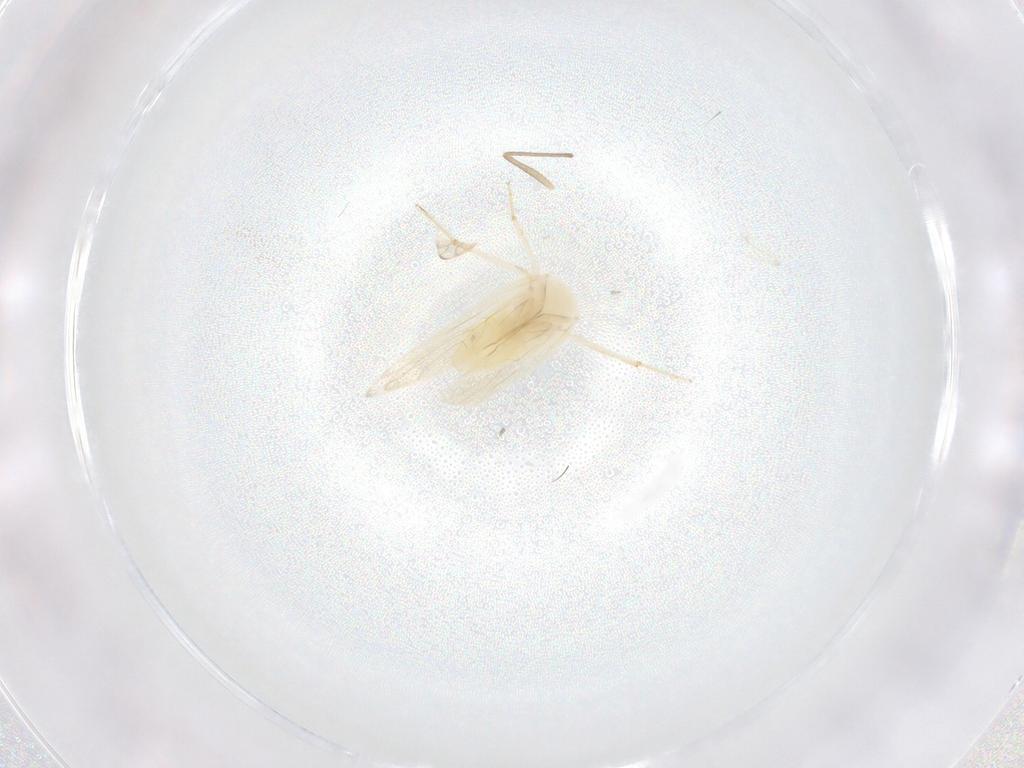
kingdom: Animalia
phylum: Arthropoda
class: Insecta
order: Psocodea
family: Lepidopsocidae
